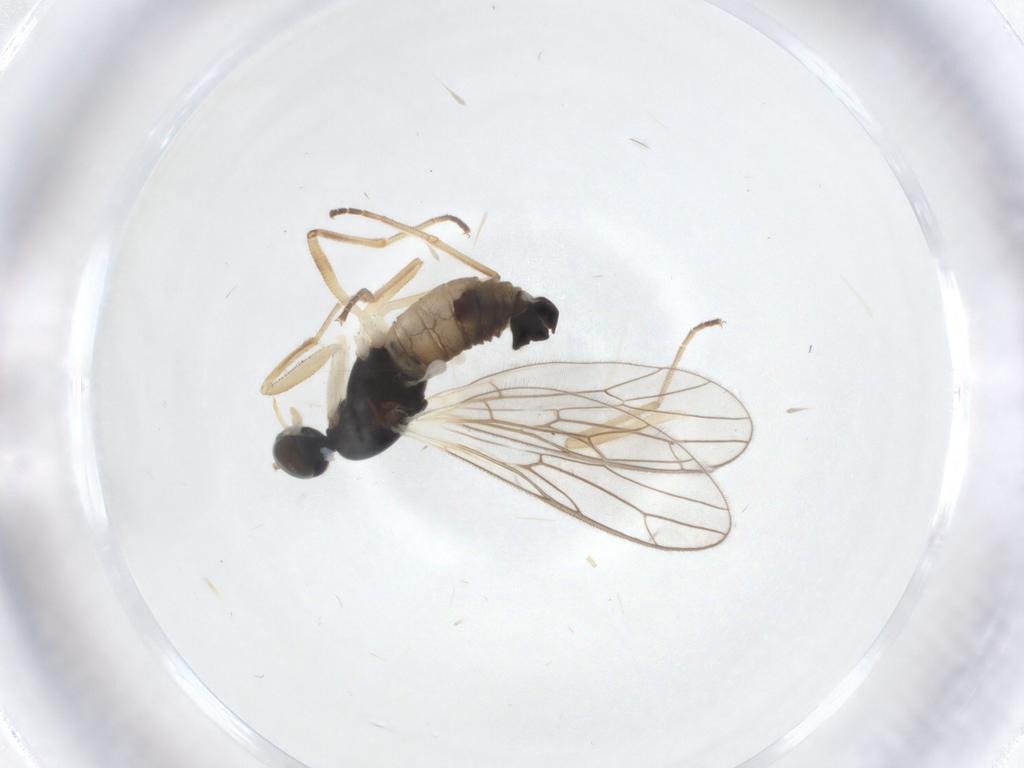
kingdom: Animalia
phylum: Arthropoda
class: Insecta
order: Diptera
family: Empididae
